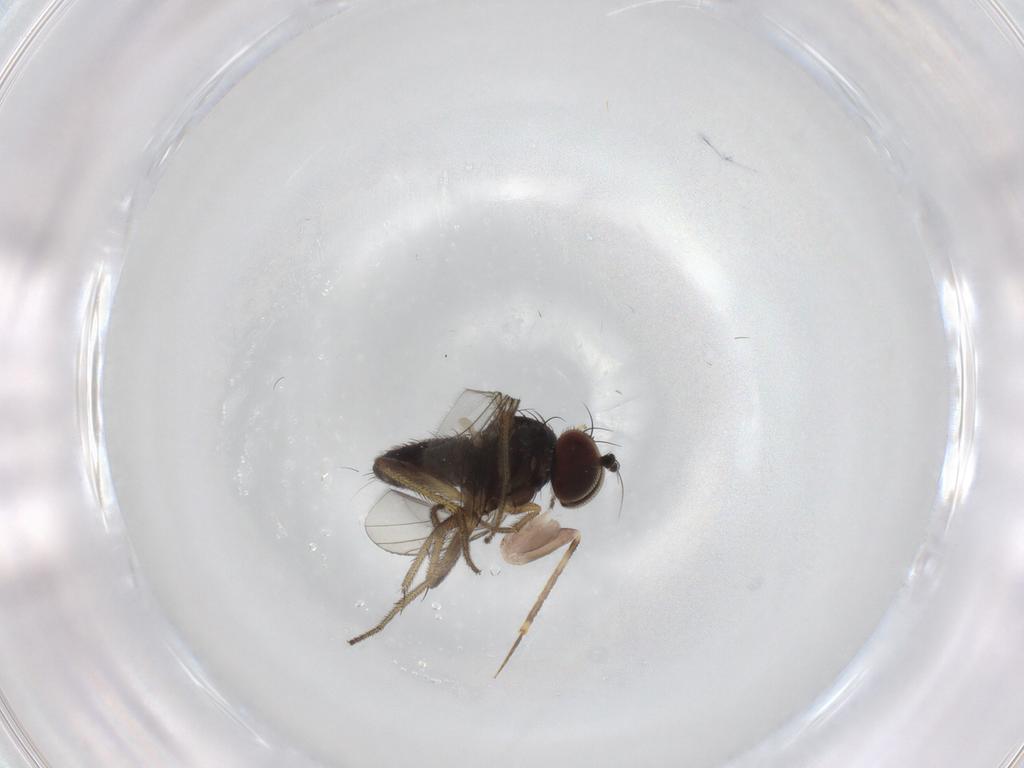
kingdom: Animalia
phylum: Arthropoda
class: Insecta
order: Diptera
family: Dolichopodidae
